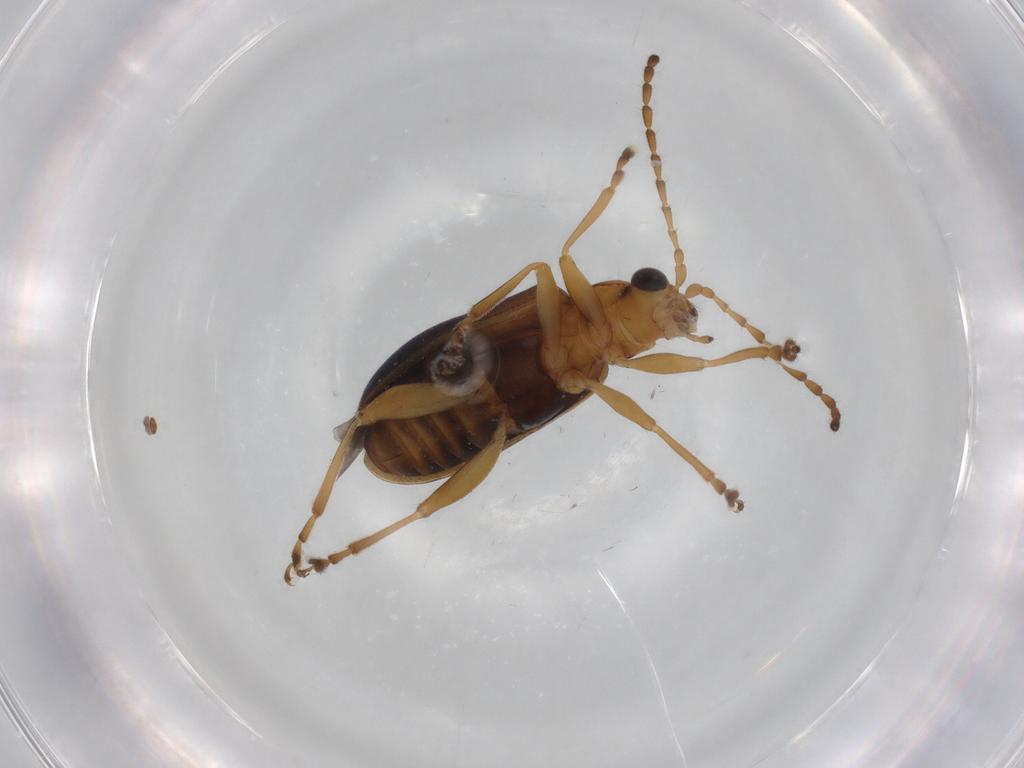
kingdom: Animalia
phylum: Arthropoda
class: Insecta
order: Coleoptera
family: Chrysomelidae
